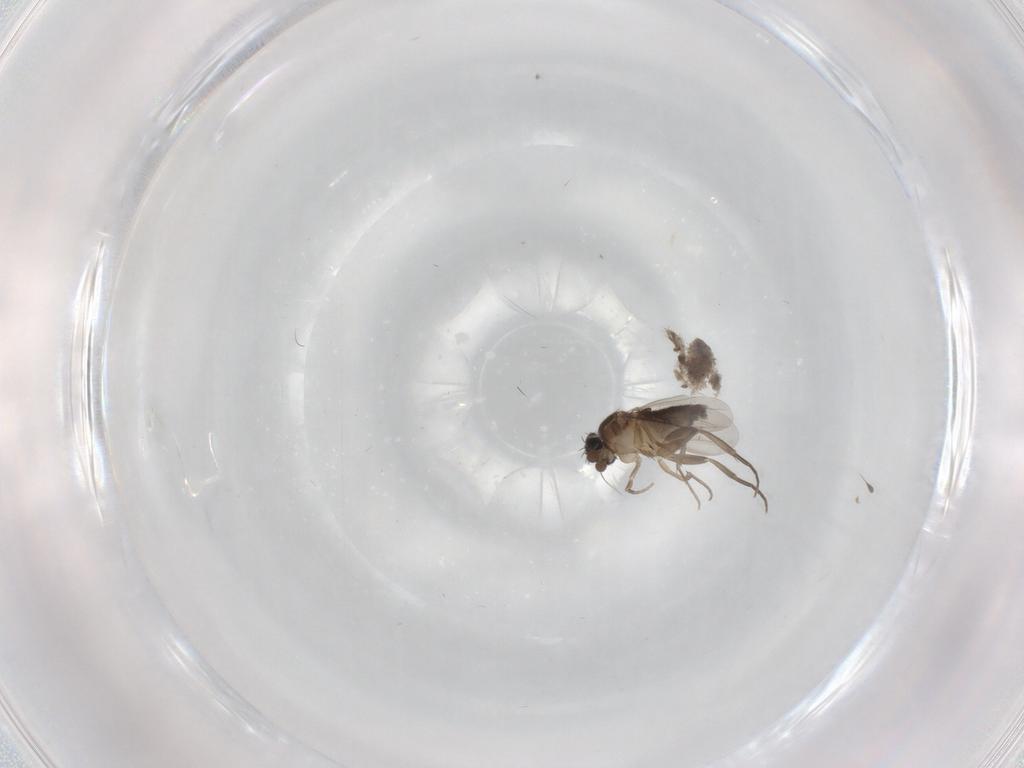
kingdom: Animalia
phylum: Arthropoda
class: Insecta
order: Diptera
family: Phoridae
